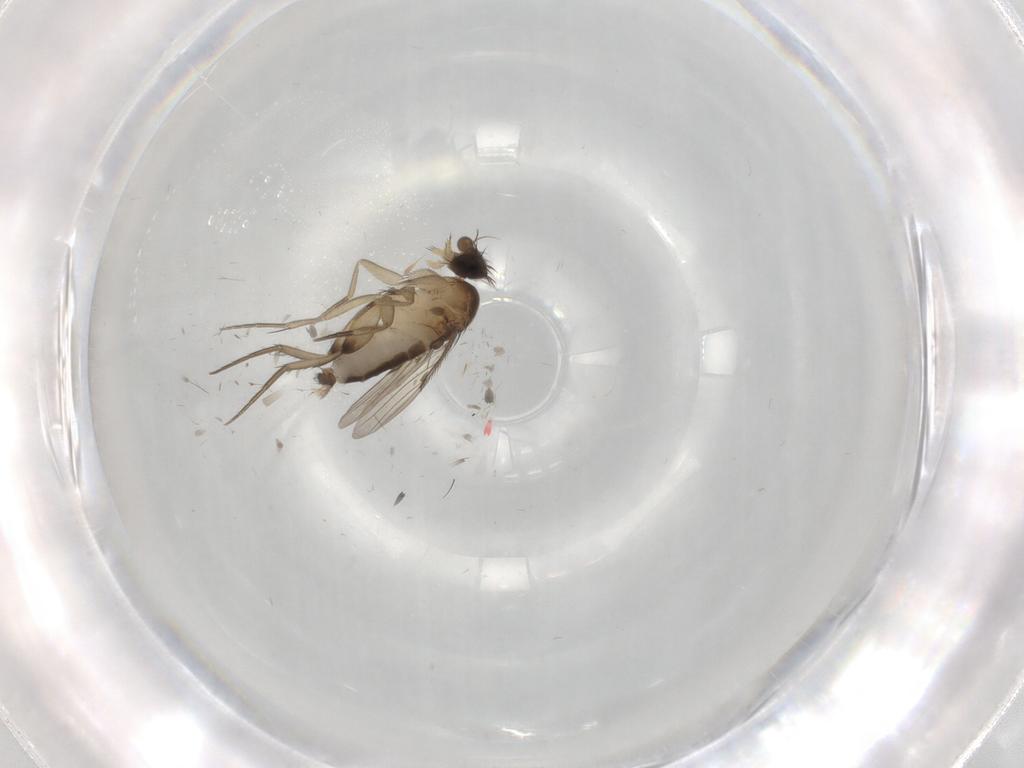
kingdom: Animalia
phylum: Arthropoda
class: Insecta
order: Diptera
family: Phoridae
